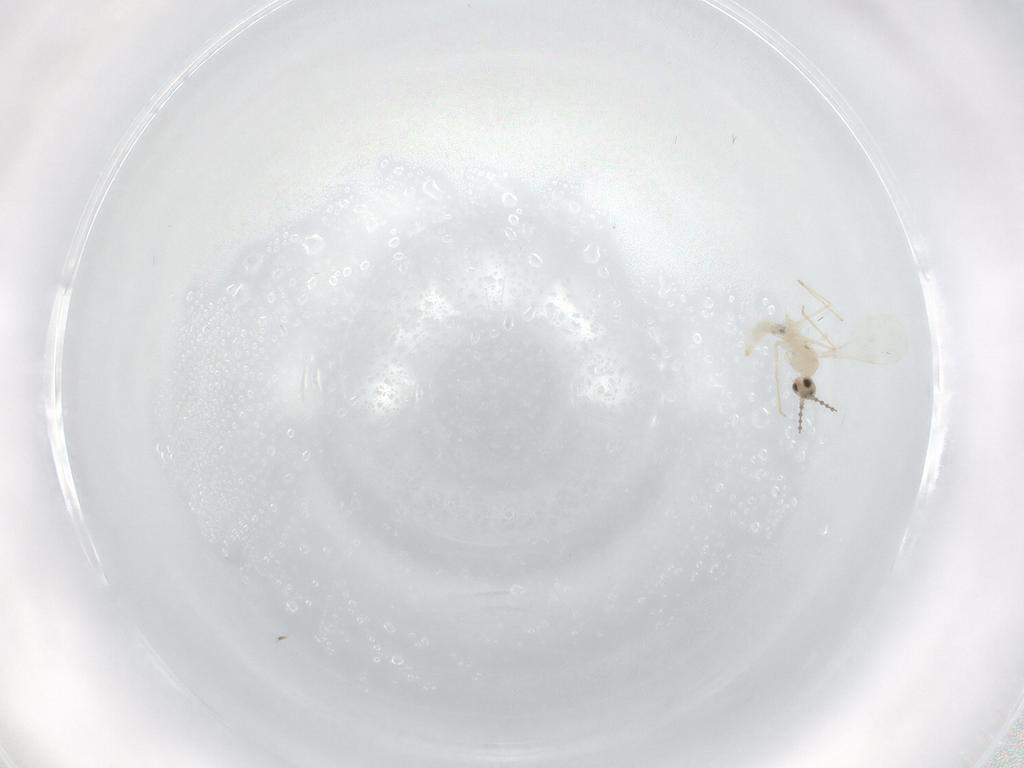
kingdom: Animalia
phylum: Arthropoda
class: Insecta
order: Diptera
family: Cecidomyiidae
